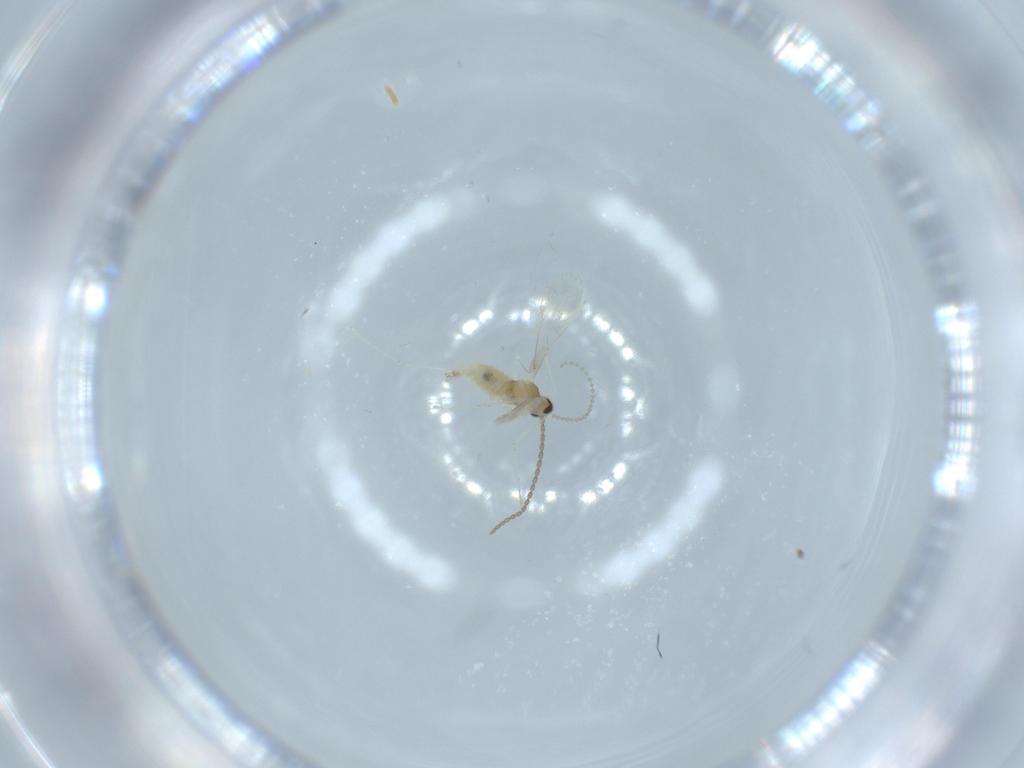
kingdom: Animalia
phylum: Arthropoda
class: Insecta
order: Diptera
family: Cecidomyiidae
